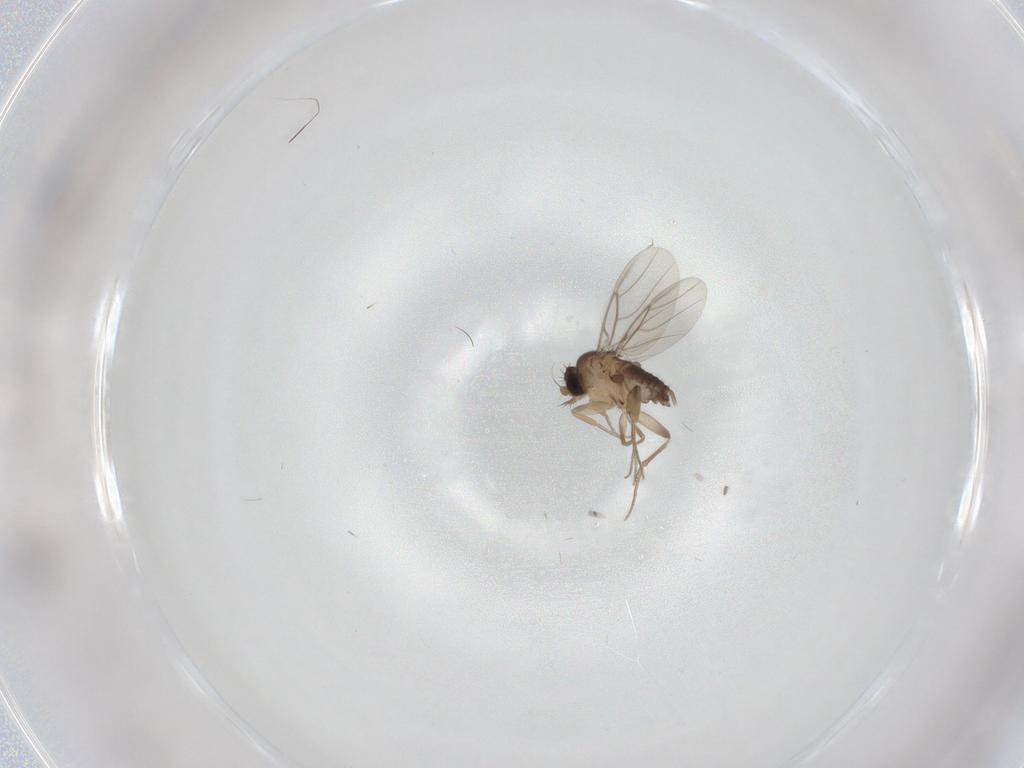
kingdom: Animalia
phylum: Arthropoda
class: Insecta
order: Diptera
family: Phoridae
